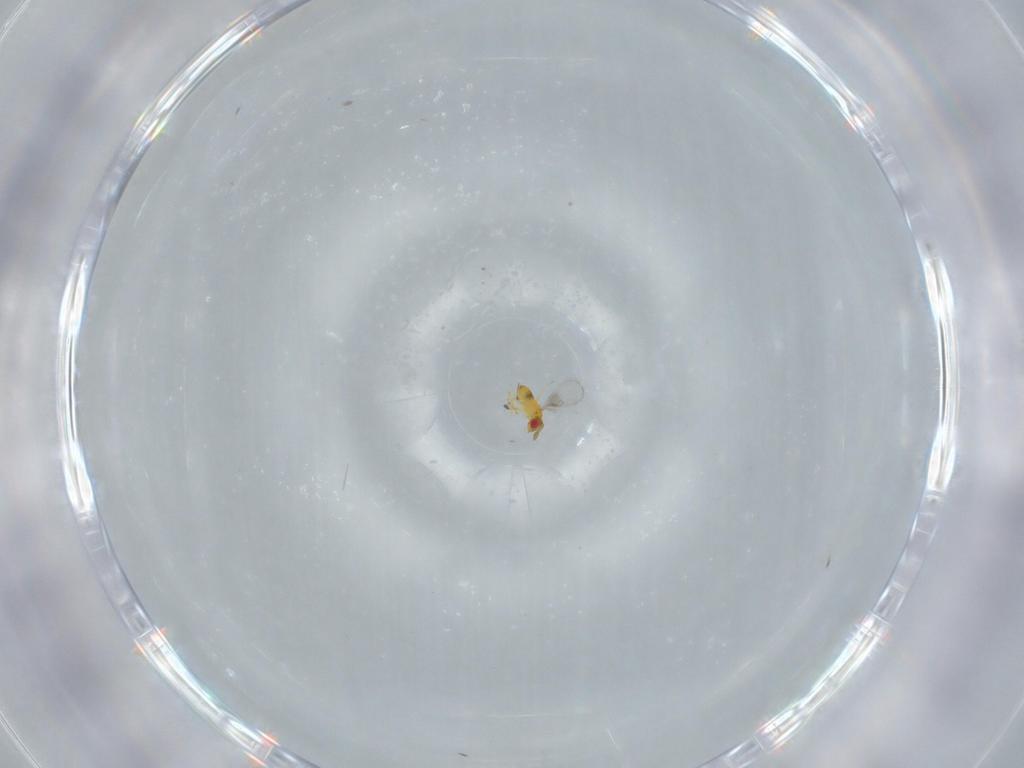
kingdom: Animalia
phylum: Arthropoda
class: Insecta
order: Hymenoptera
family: Trichogrammatidae
